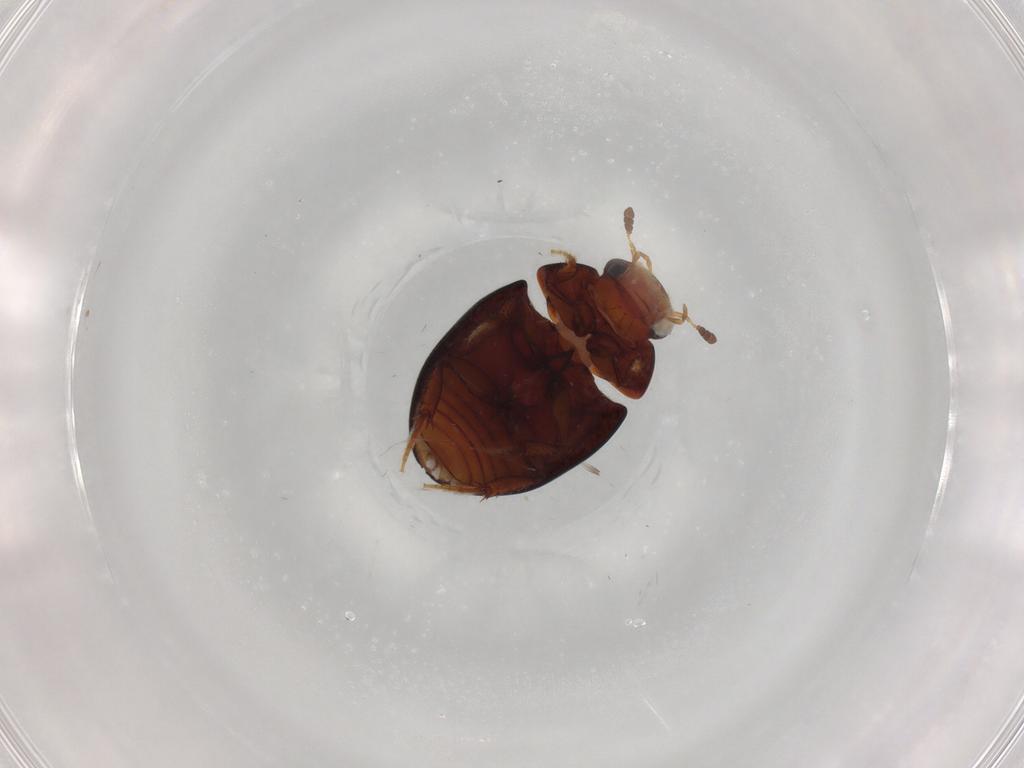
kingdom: Animalia
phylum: Arthropoda
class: Insecta
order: Coleoptera
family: Hydrophilidae
